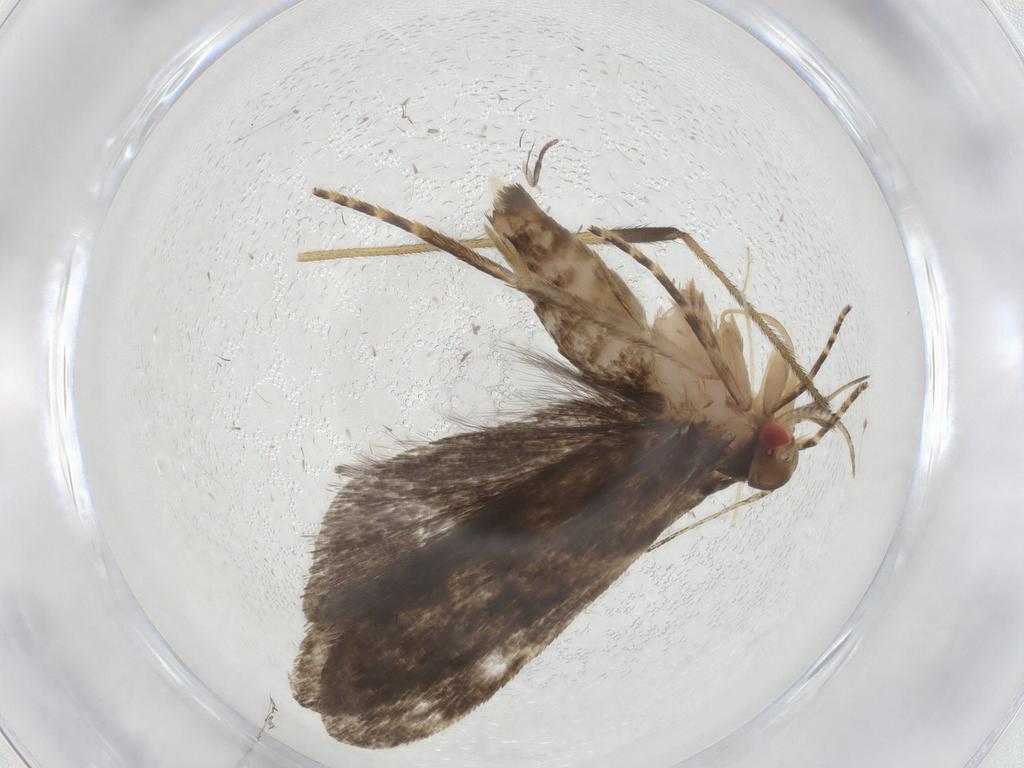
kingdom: Animalia
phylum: Arthropoda
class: Insecta
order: Lepidoptera
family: Gelechiidae
